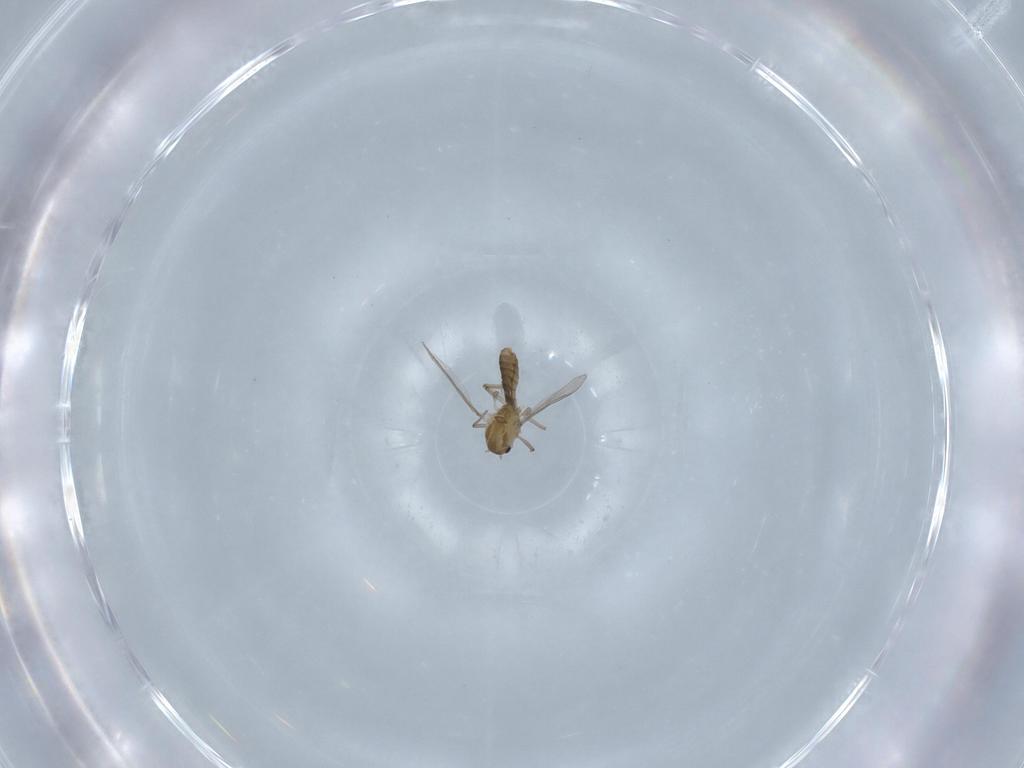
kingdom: Animalia
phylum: Arthropoda
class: Insecta
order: Diptera
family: Chironomidae
